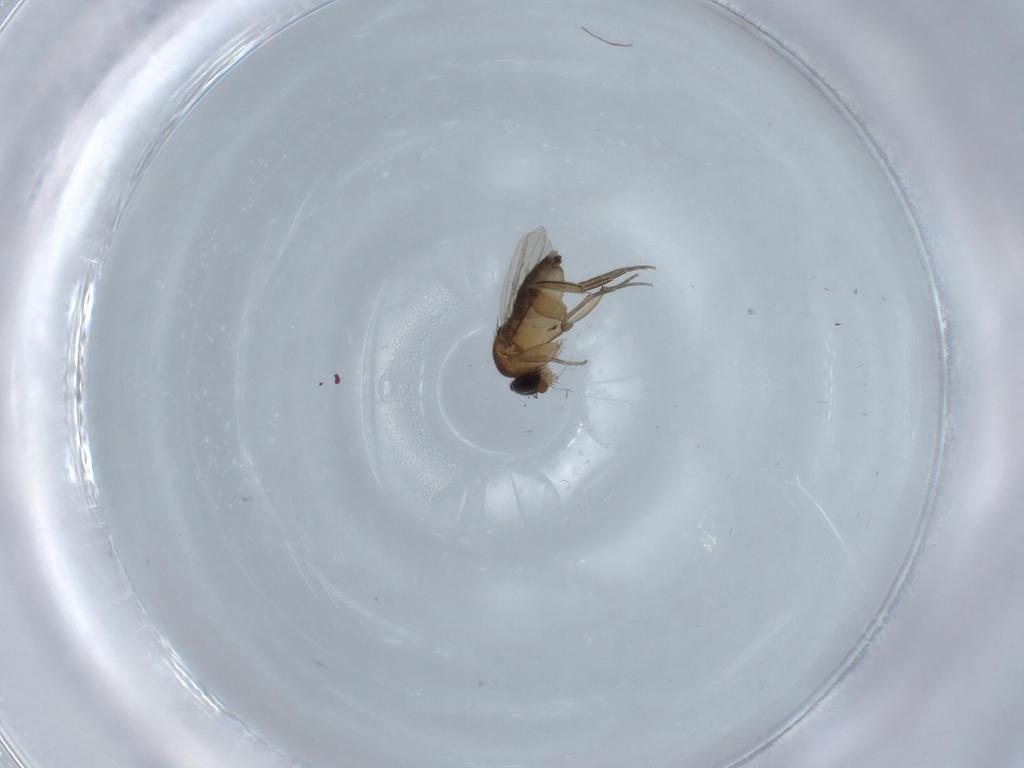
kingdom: Animalia
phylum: Arthropoda
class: Insecta
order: Diptera
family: Phoridae
